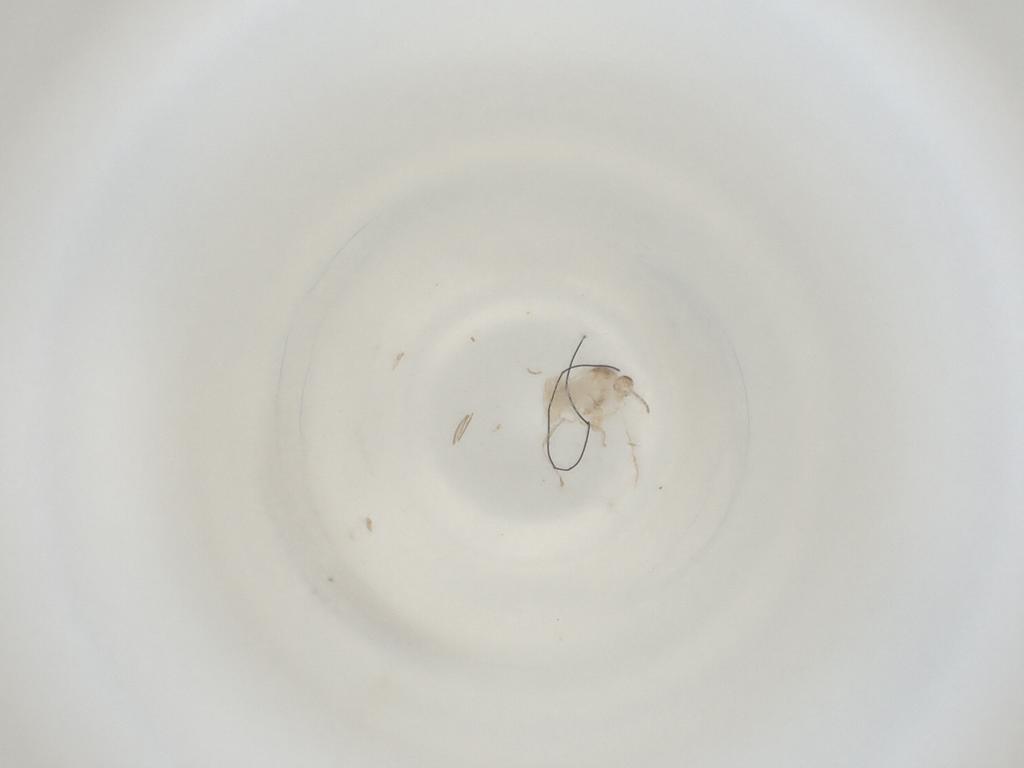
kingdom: Animalia
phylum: Arthropoda
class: Insecta
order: Diptera
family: Cecidomyiidae
